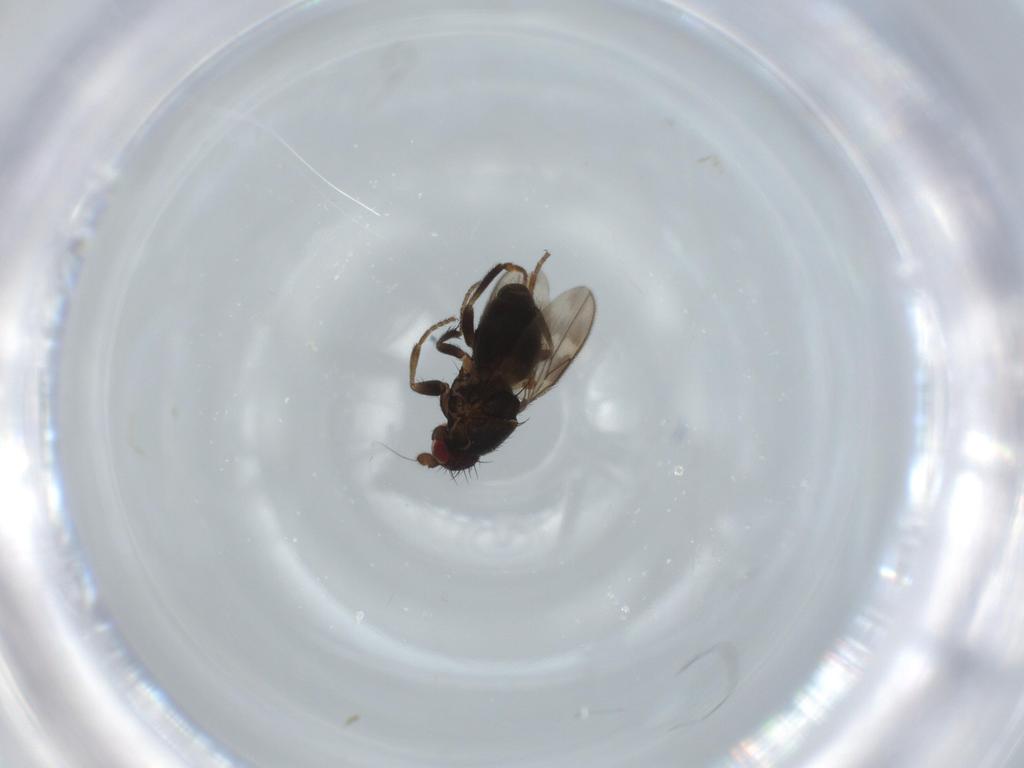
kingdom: Animalia
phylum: Arthropoda
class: Insecta
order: Diptera
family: Sphaeroceridae
